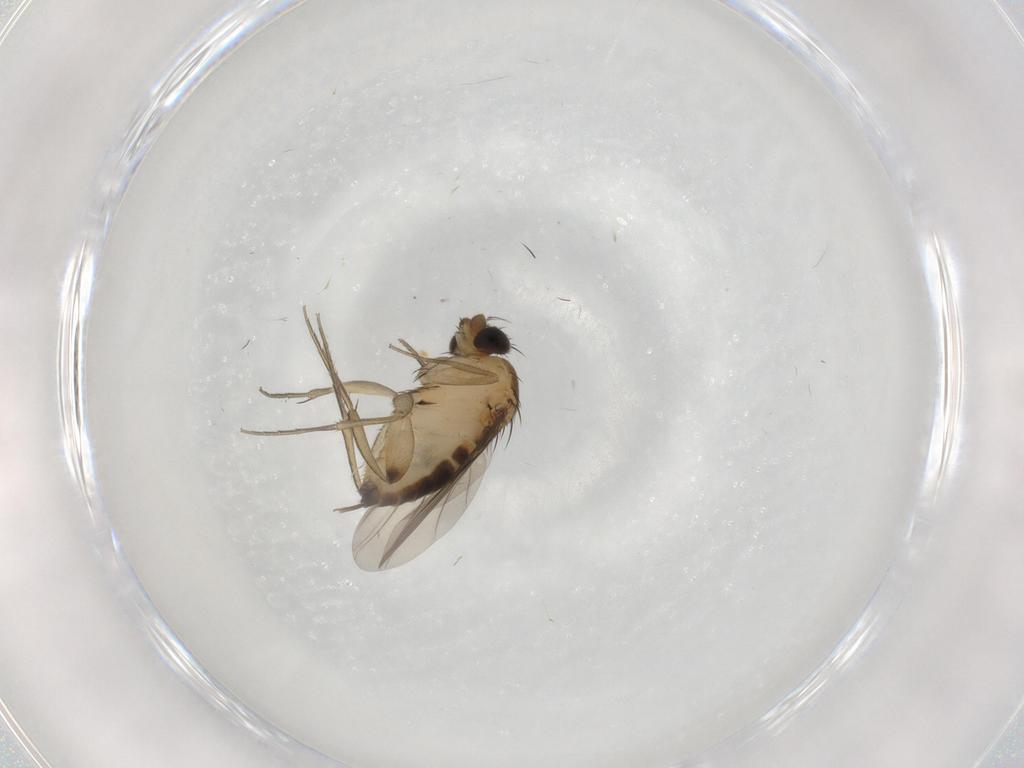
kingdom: Animalia
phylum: Arthropoda
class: Insecta
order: Diptera
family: Phoridae
